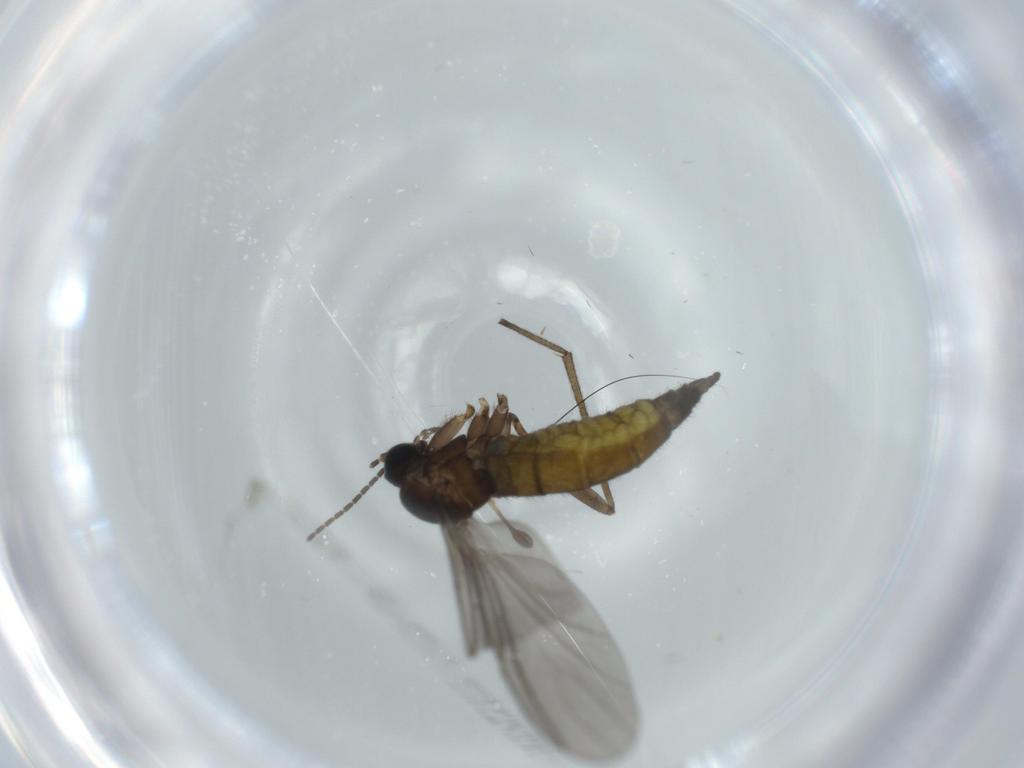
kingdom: Animalia
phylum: Arthropoda
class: Insecta
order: Diptera
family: Sciaridae
